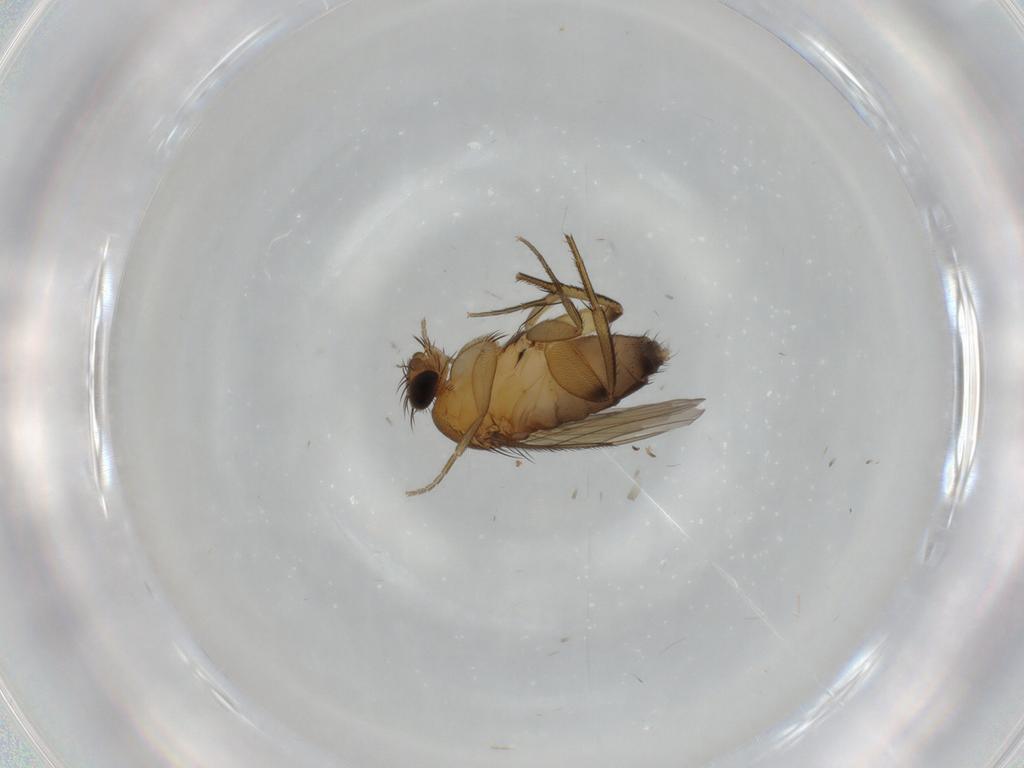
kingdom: Animalia
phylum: Arthropoda
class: Insecta
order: Diptera
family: Phoridae
